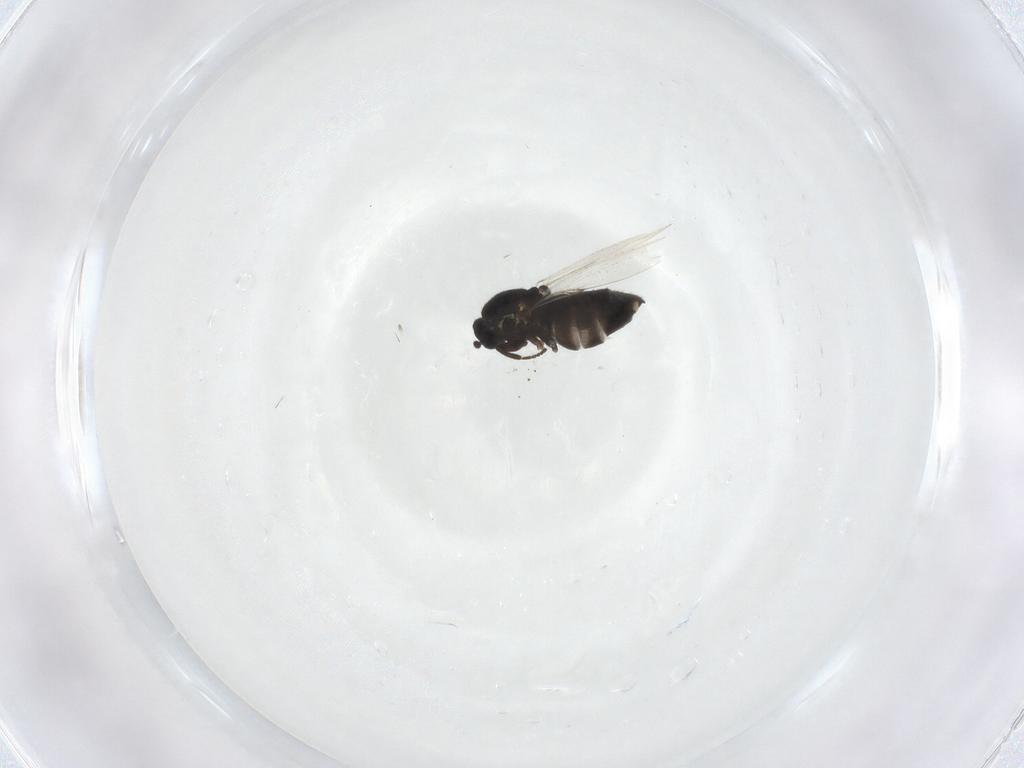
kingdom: Animalia
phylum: Arthropoda
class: Insecta
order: Diptera
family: Scatopsidae
